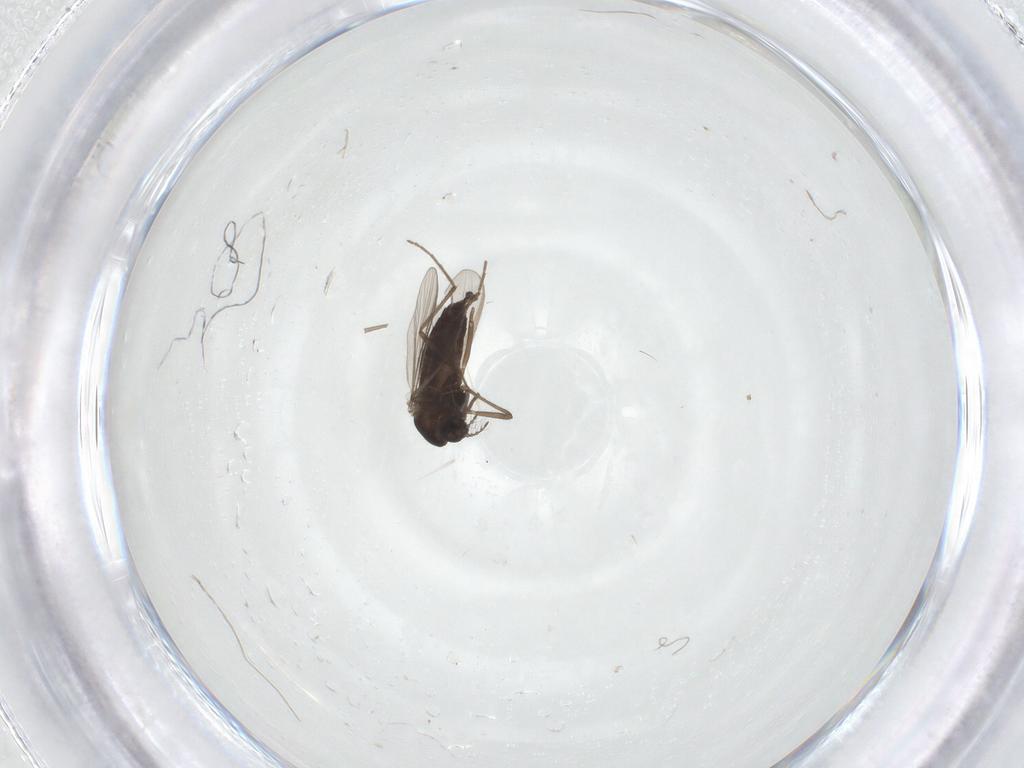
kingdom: Animalia
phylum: Arthropoda
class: Insecta
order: Diptera
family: Chironomidae
